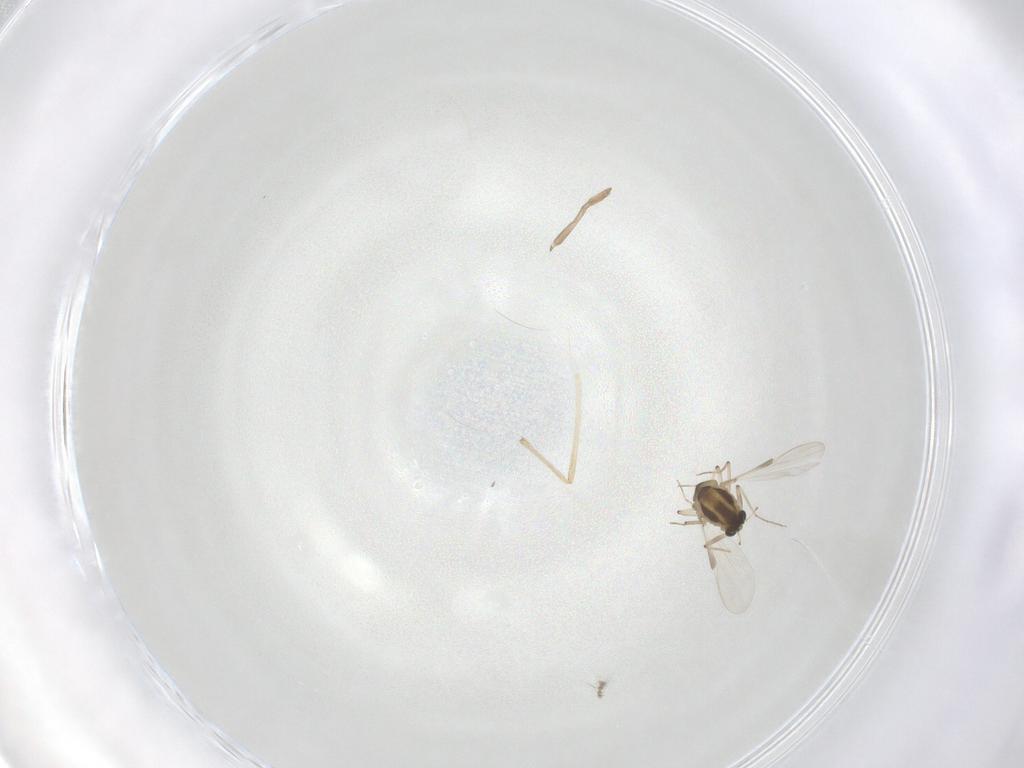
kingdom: Animalia
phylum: Arthropoda
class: Insecta
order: Diptera
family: Chironomidae
